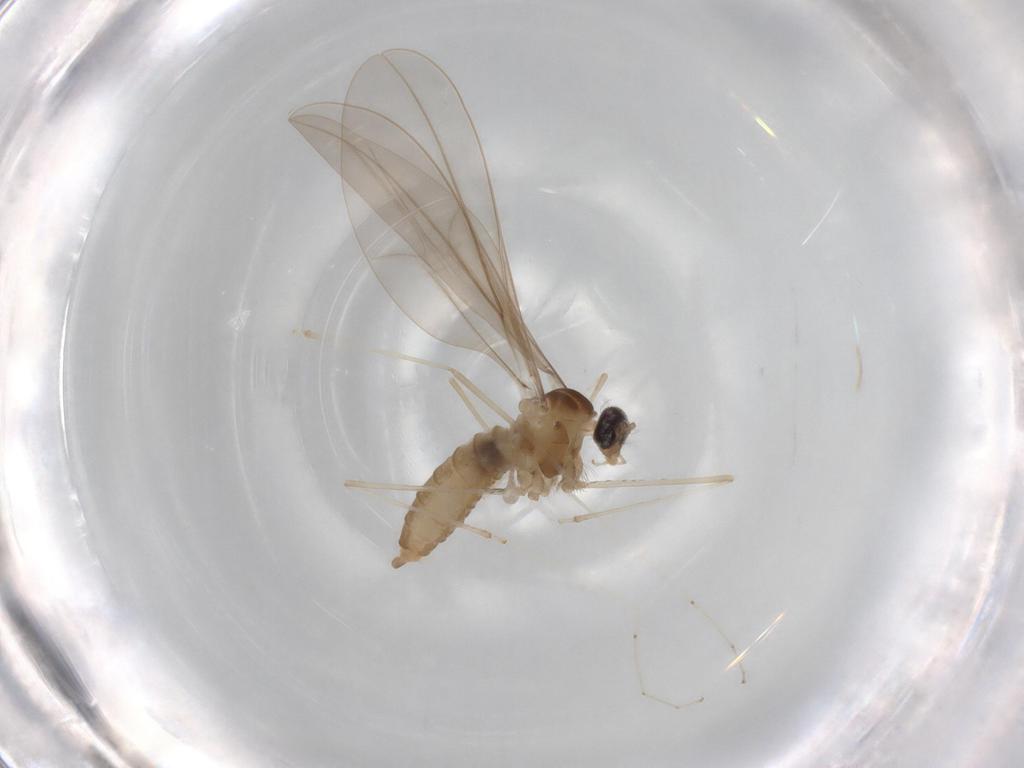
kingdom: Animalia
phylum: Arthropoda
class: Insecta
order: Diptera
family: Cecidomyiidae
